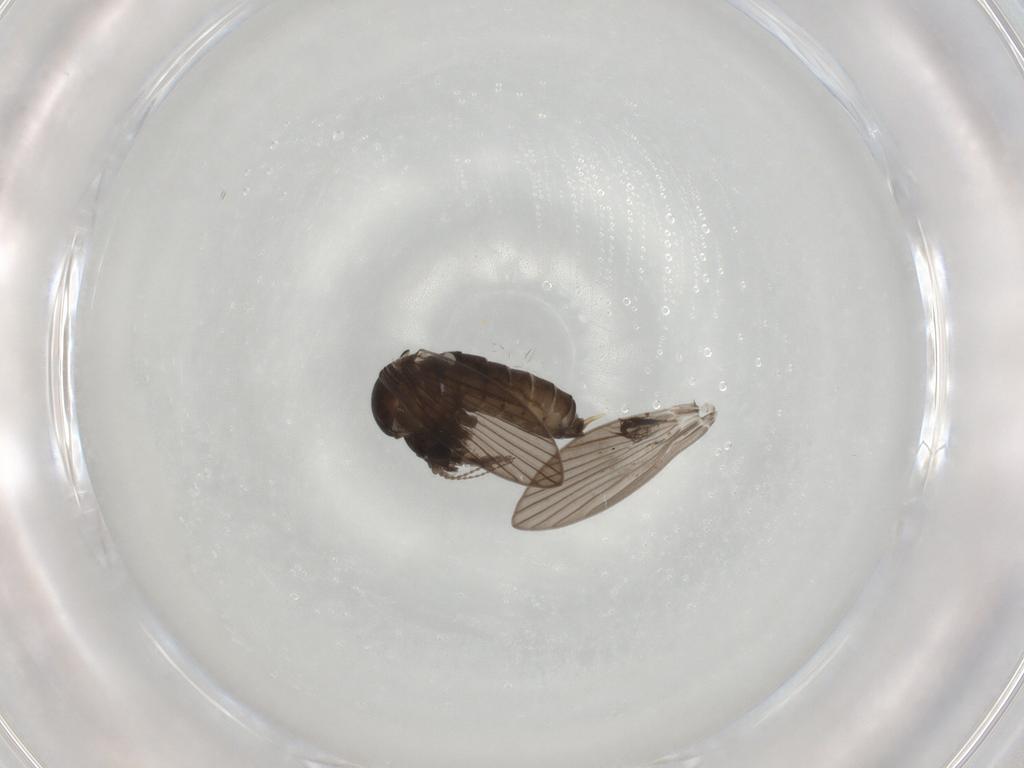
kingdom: Animalia
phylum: Arthropoda
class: Insecta
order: Diptera
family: Psychodidae
